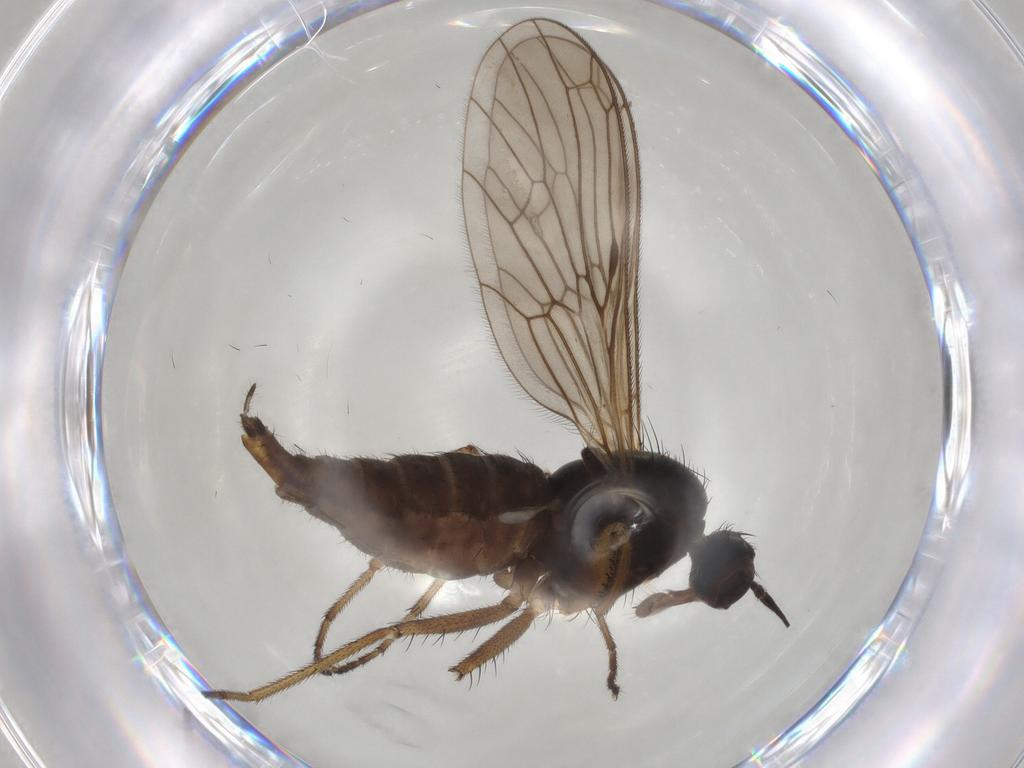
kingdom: Animalia
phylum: Arthropoda
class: Insecta
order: Diptera
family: Chironomidae
